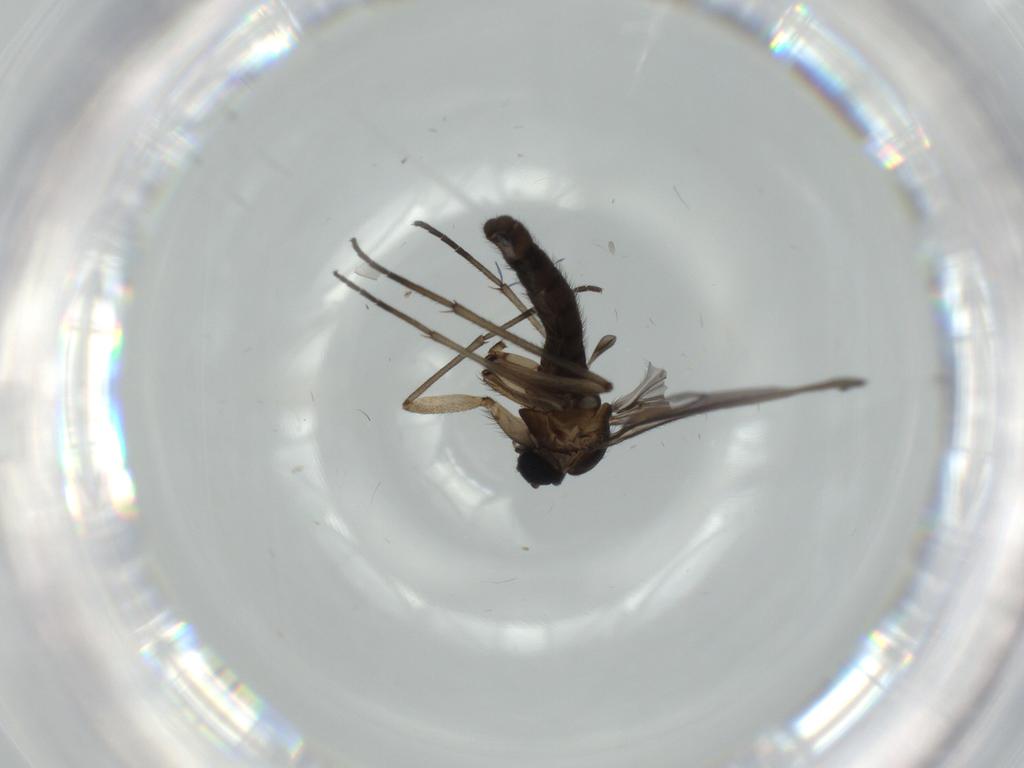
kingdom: Animalia
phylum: Arthropoda
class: Insecta
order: Diptera
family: Sciaridae
